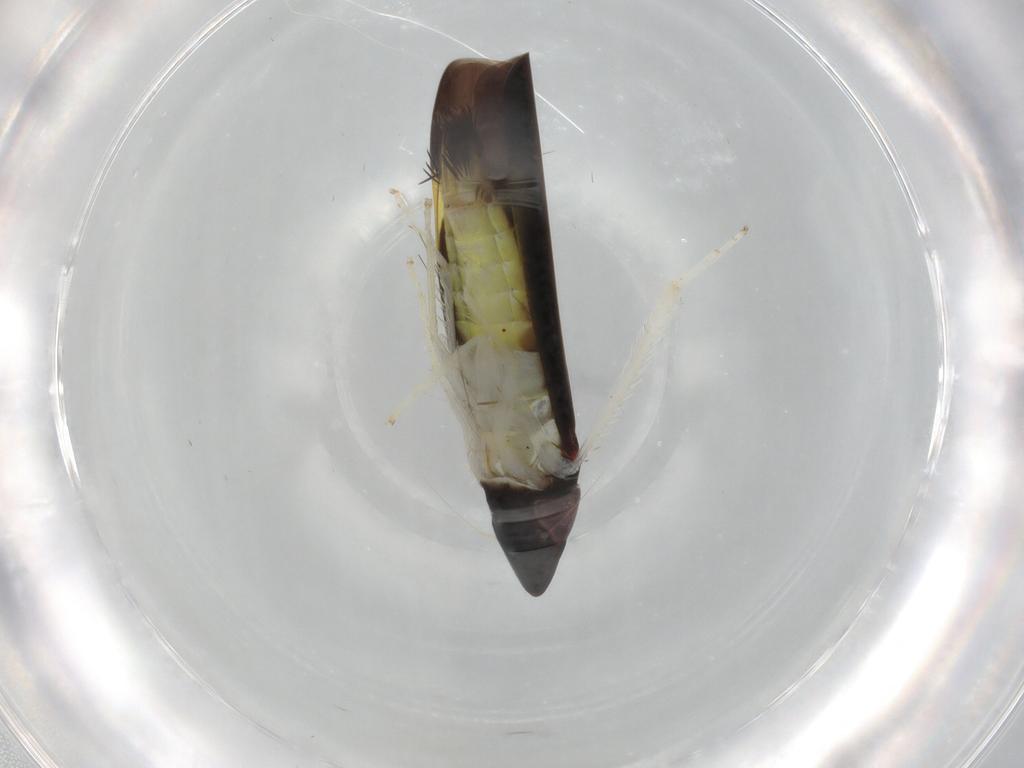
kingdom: Animalia
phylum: Arthropoda
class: Insecta
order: Hemiptera
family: Cicadellidae
